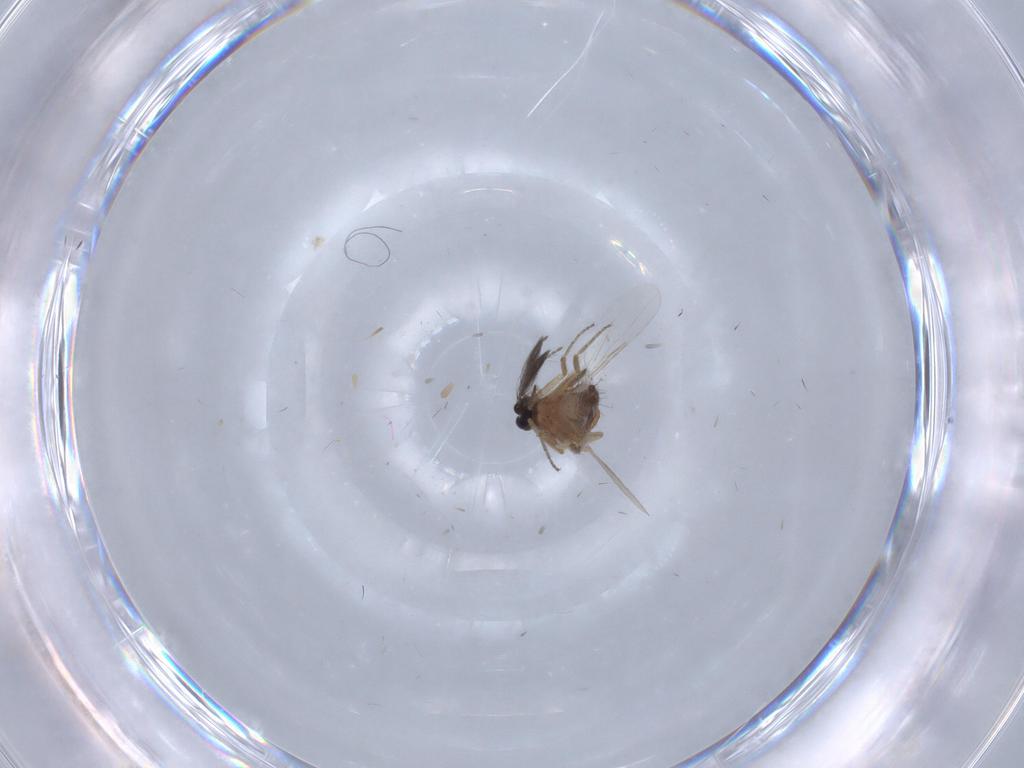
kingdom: Animalia
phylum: Arthropoda
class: Insecta
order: Diptera
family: Ceratopogonidae
